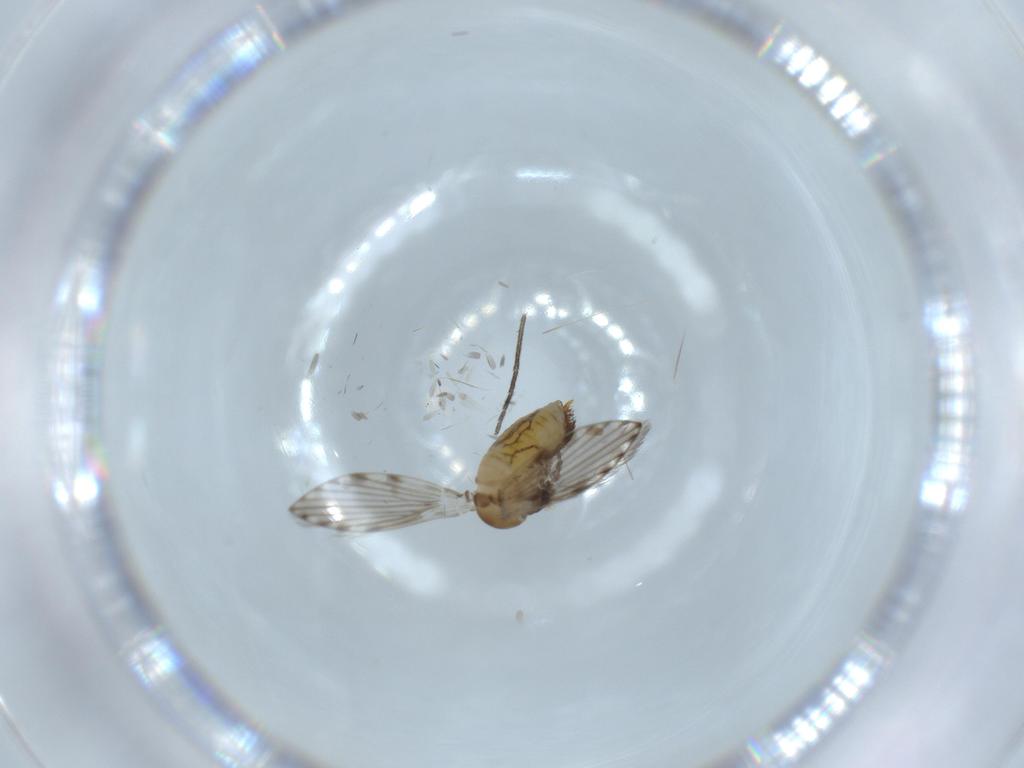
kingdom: Animalia
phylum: Arthropoda
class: Insecta
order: Diptera
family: Psychodidae
